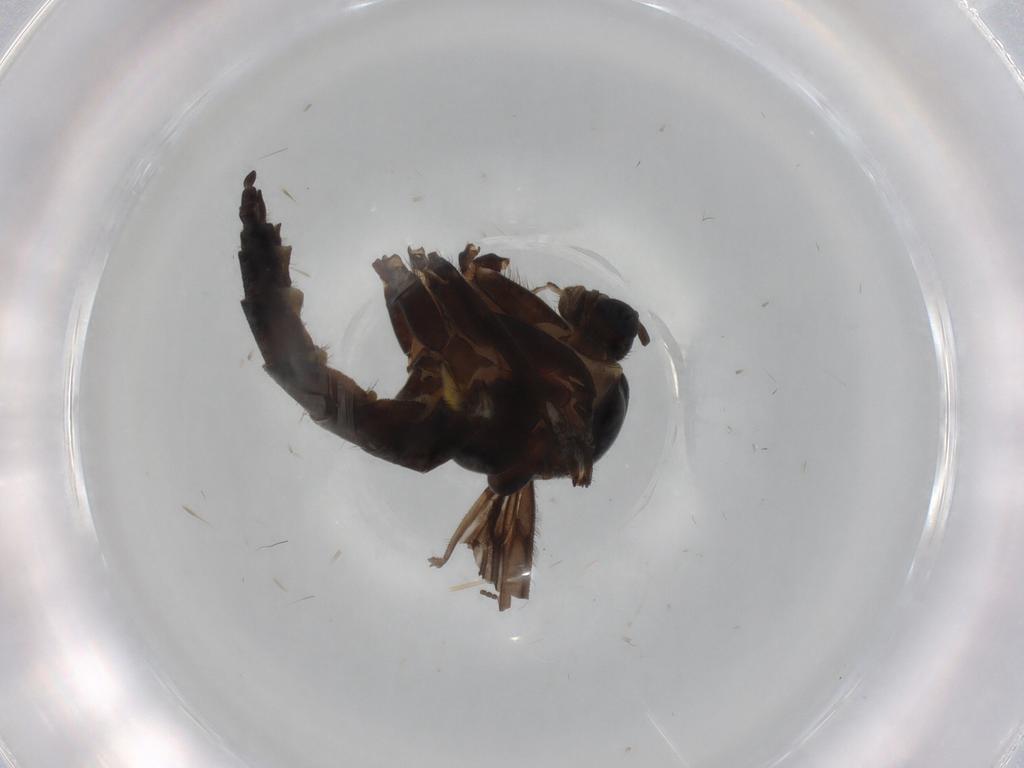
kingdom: Animalia
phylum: Arthropoda
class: Insecta
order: Diptera
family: Sciaridae
